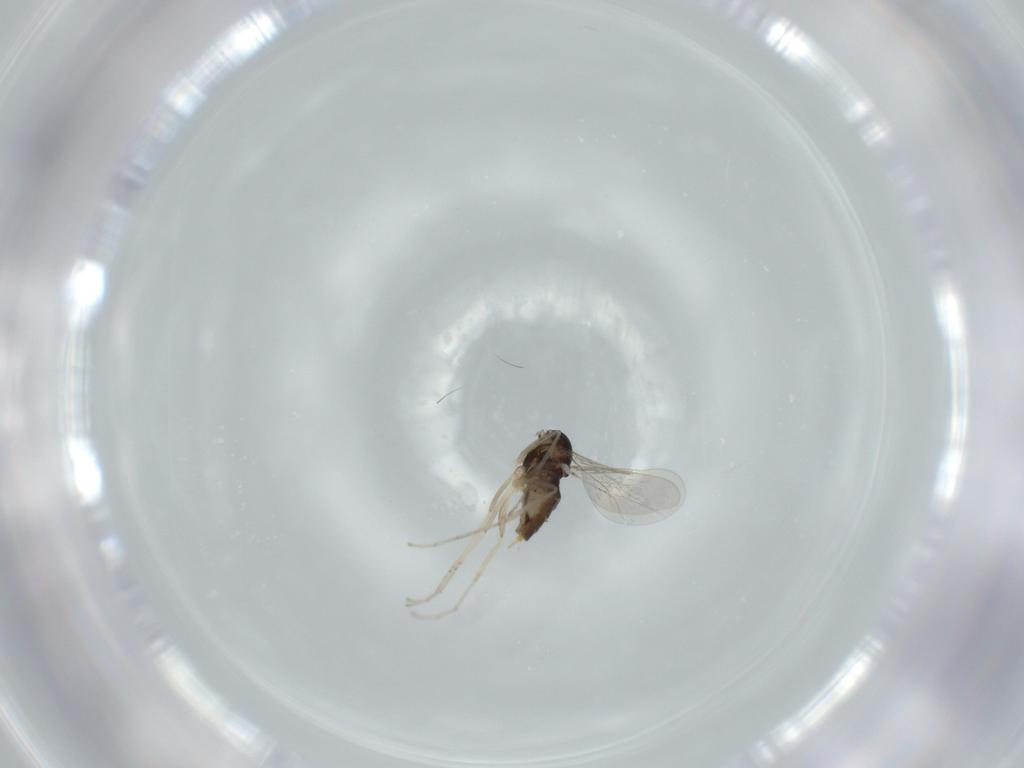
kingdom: Animalia
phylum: Arthropoda
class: Insecta
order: Diptera
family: Cecidomyiidae
